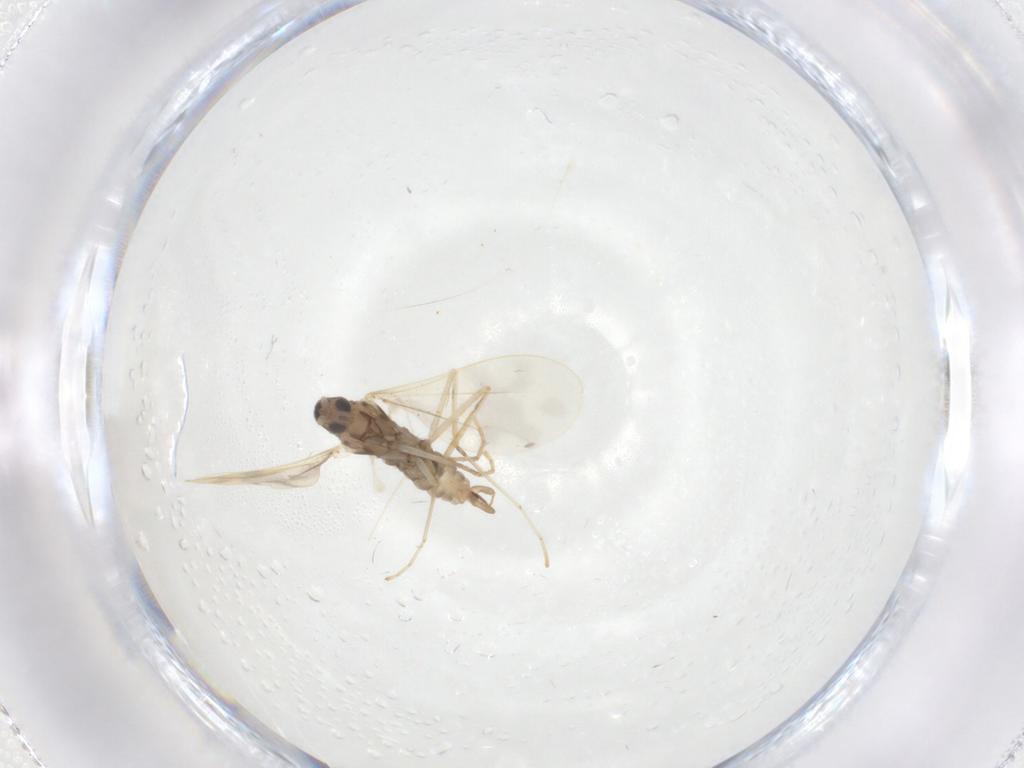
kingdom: Animalia
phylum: Arthropoda
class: Insecta
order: Diptera
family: Cecidomyiidae
